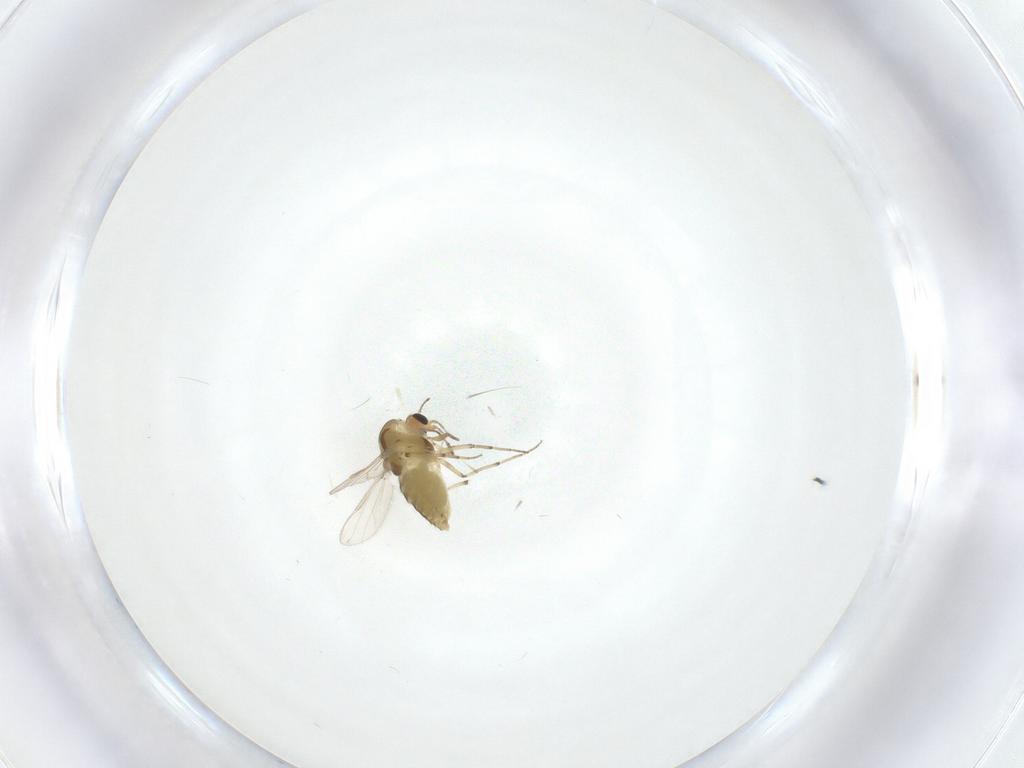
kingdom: Animalia
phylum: Arthropoda
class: Insecta
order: Diptera
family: Chironomidae
